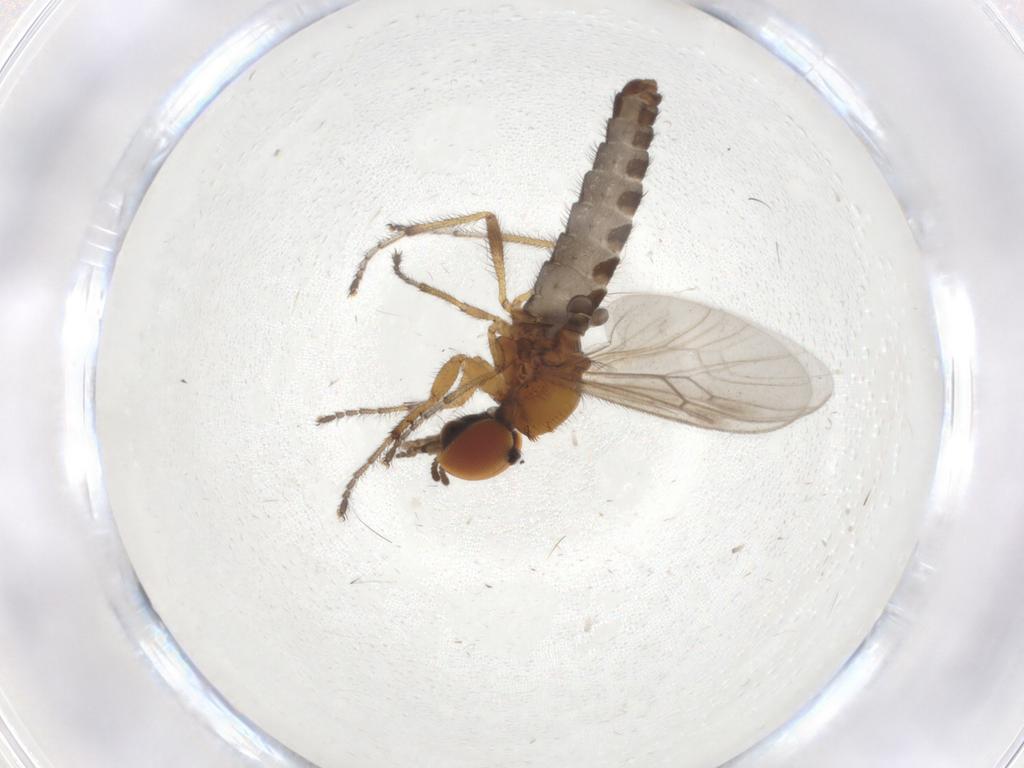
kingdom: Animalia
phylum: Arthropoda
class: Insecta
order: Diptera
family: Bibionidae
